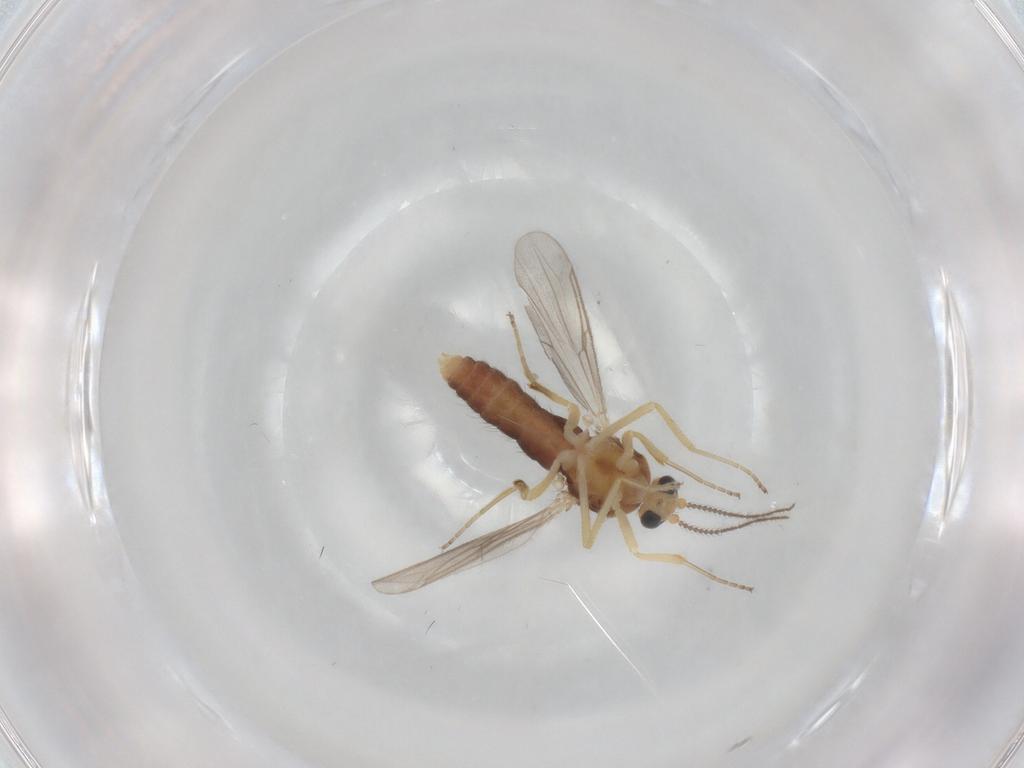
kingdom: Animalia
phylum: Arthropoda
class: Insecta
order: Diptera
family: Ceratopogonidae
